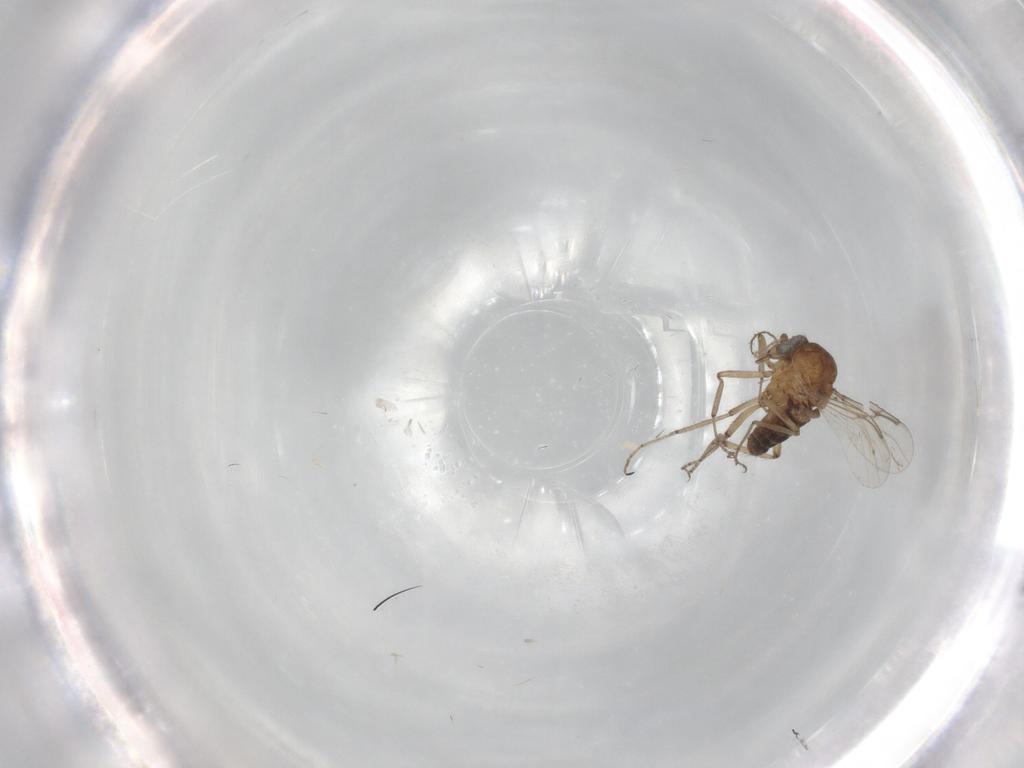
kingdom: Animalia
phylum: Arthropoda
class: Insecta
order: Diptera
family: Ceratopogonidae
